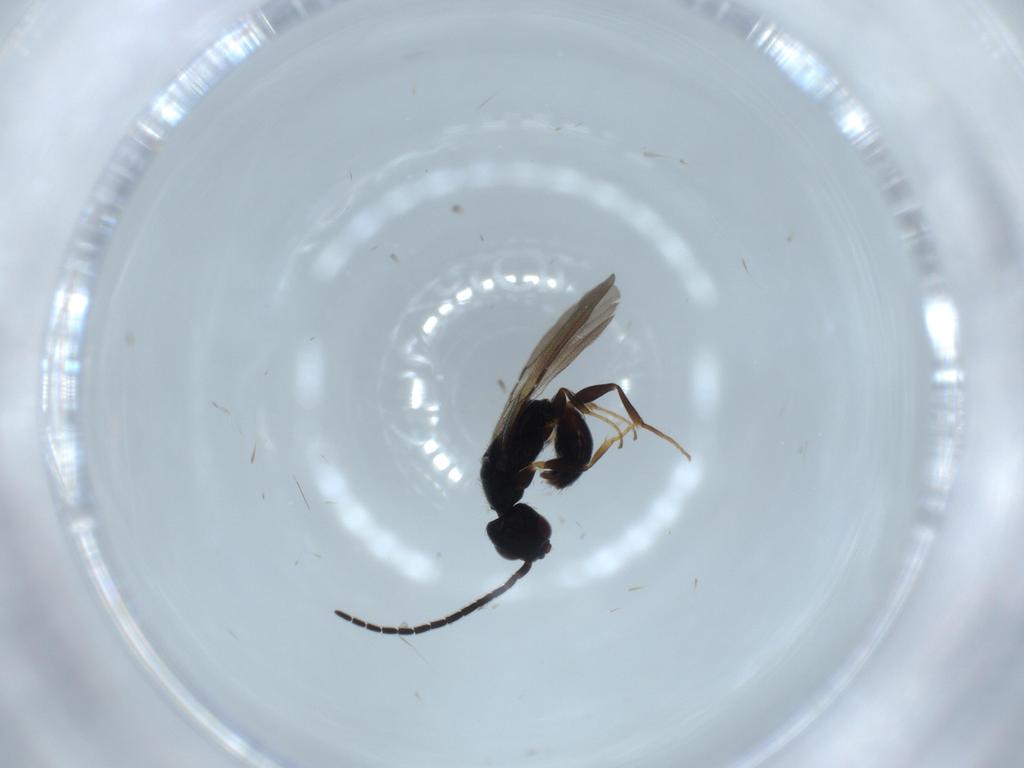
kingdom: Animalia
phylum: Arthropoda
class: Insecta
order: Hymenoptera
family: Bethylidae
